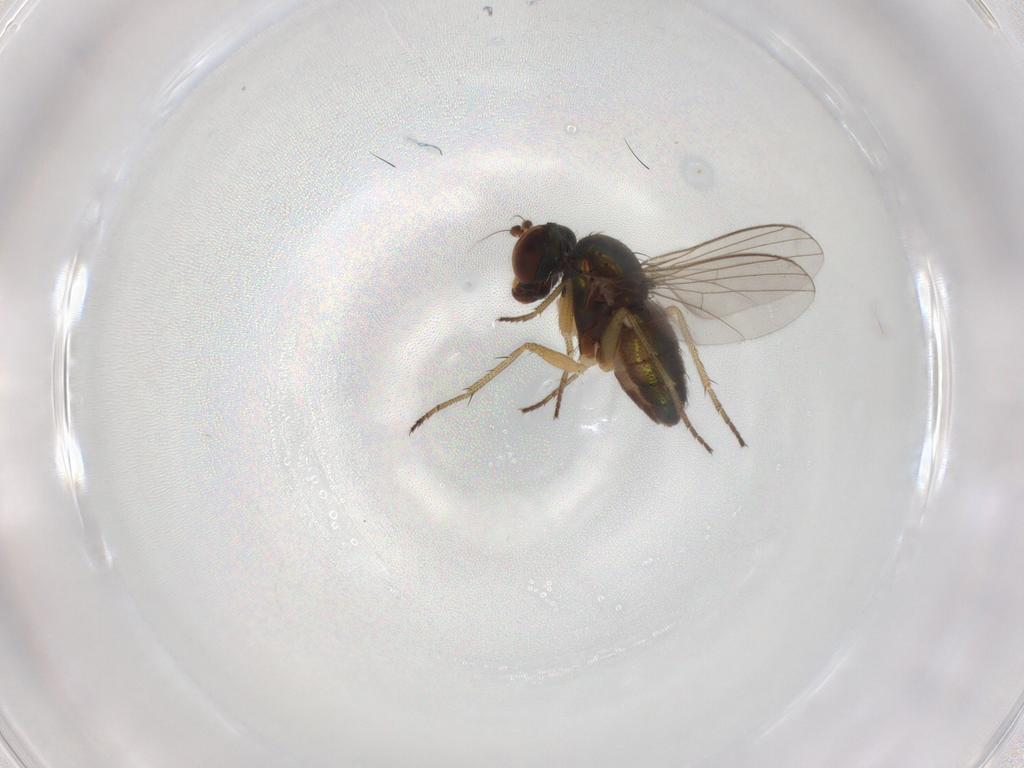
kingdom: Animalia
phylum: Arthropoda
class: Insecta
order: Diptera
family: Dolichopodidae
